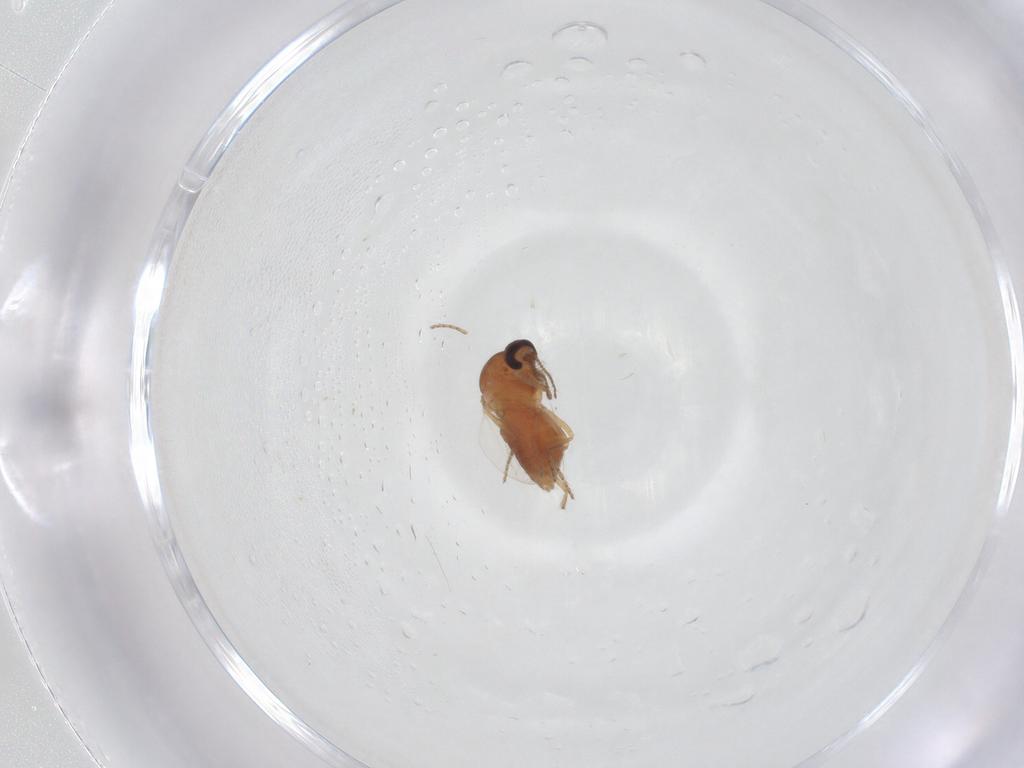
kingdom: Animalia
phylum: Arthropoda
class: Insecta
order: Diptera
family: Ceratopogonidae
